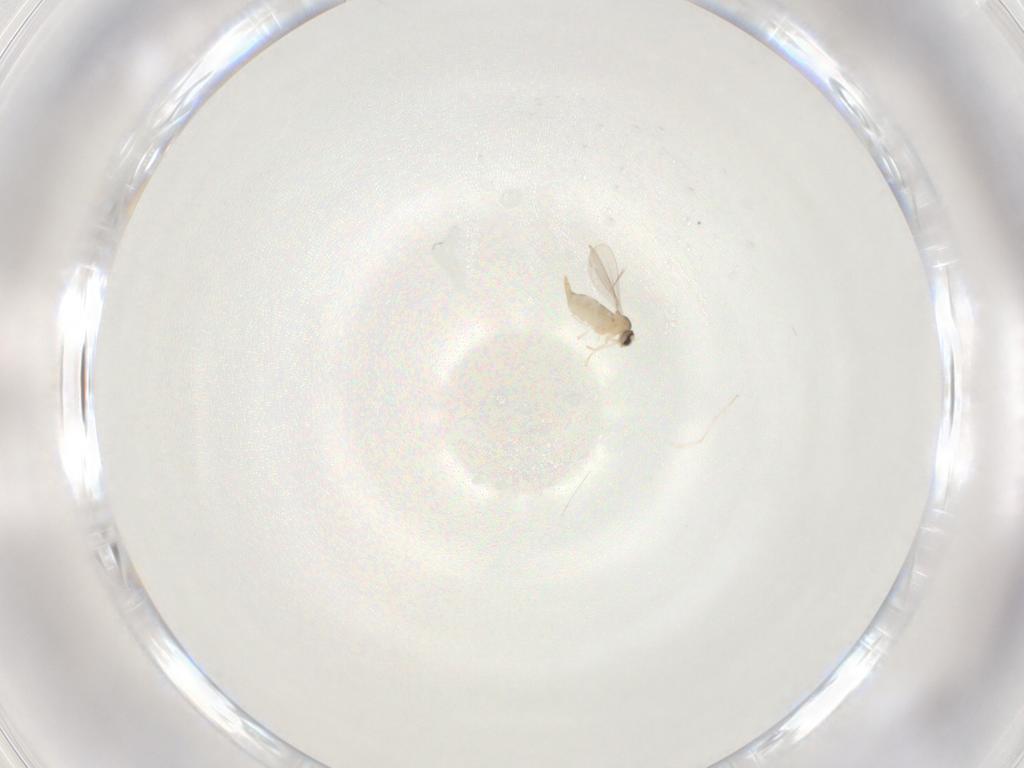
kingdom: Animalia
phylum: Arthropoda
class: Insecta
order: Diptera
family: Cecidomyiidae
